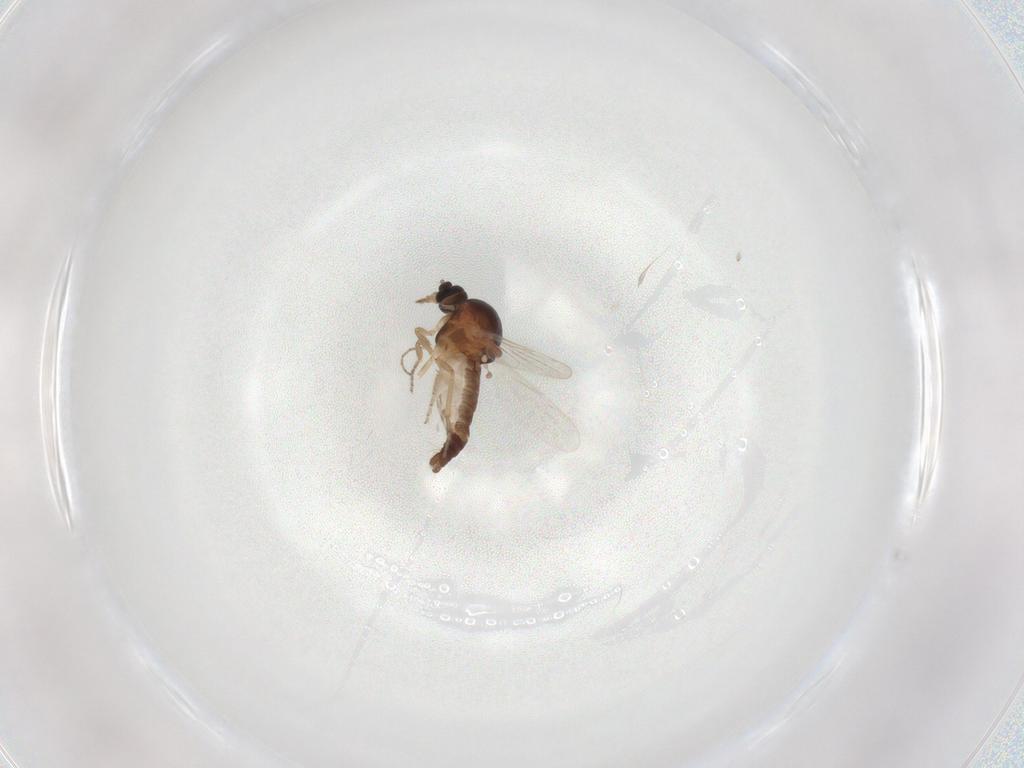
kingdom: Animalia
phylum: Arthropoda
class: Insecta
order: Diptera
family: Ceratopogonidae
